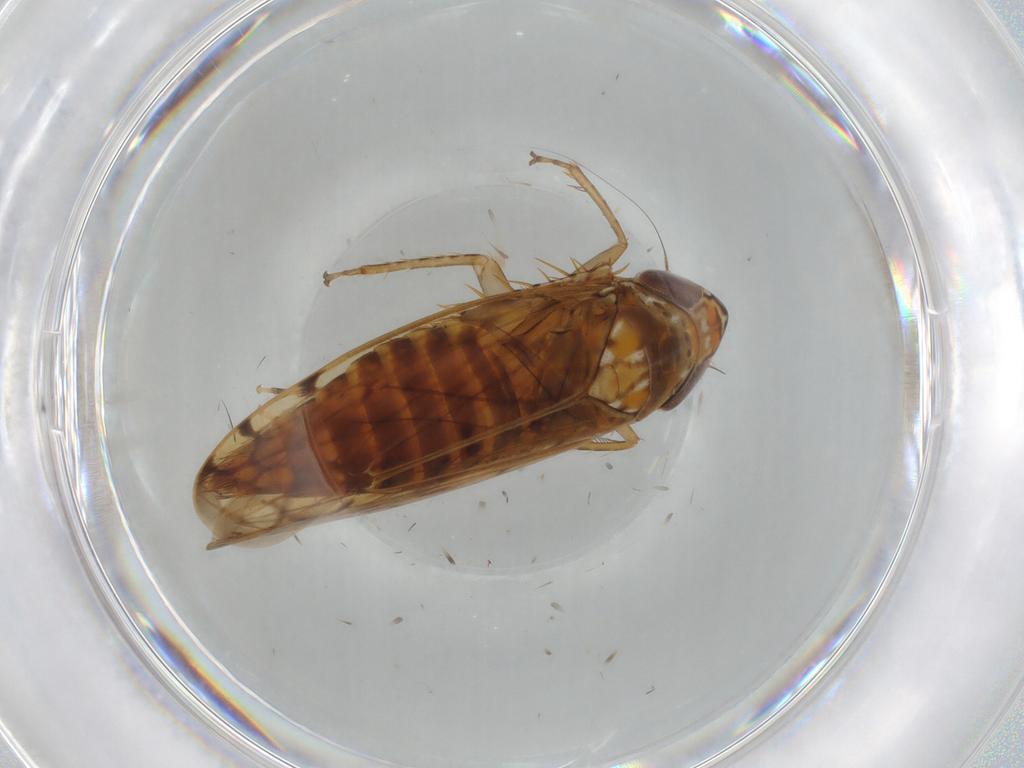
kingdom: Animalia
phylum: Arthropoda
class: Insecta
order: Hemiptera
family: Cicadellidae
